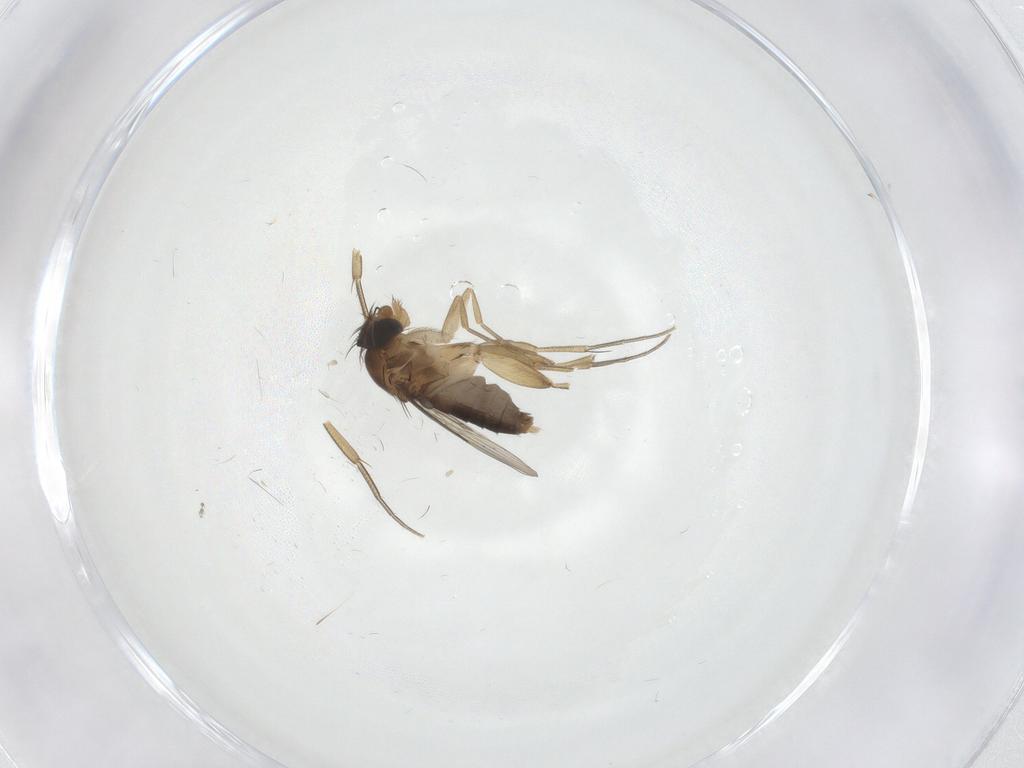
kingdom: Animalia
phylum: Arthropoda
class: Insecta
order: Diptera
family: Phoridae
